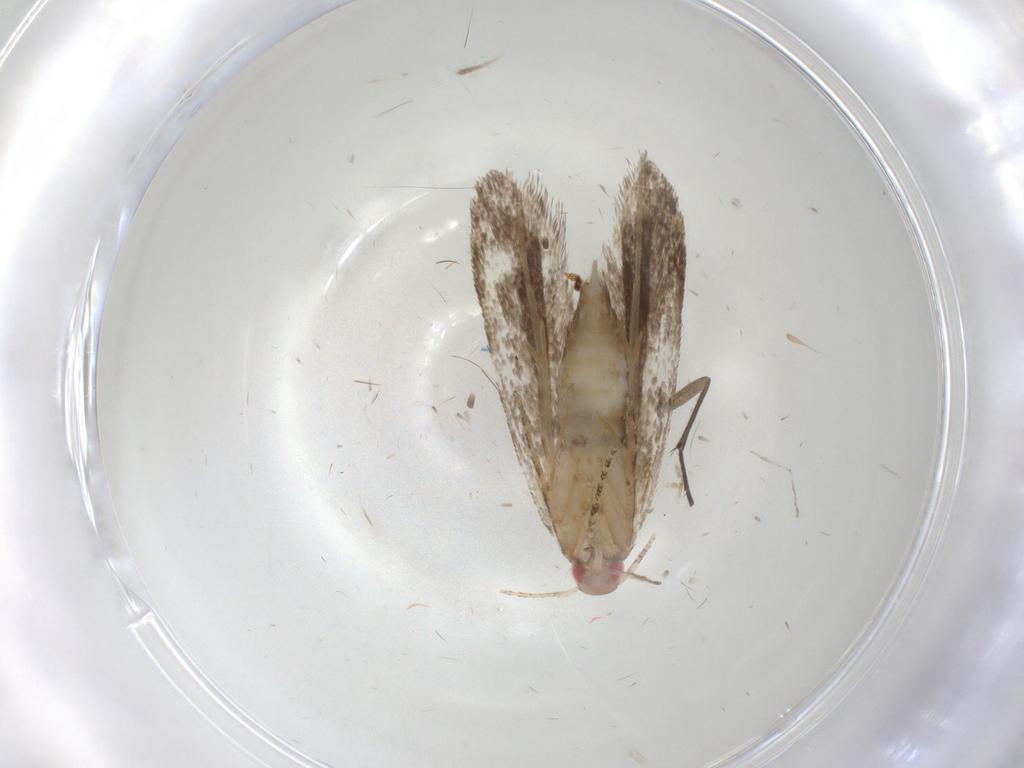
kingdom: Animalia
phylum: Arthropoda
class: Insecta
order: Lepidoptera
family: Gelechiidae
